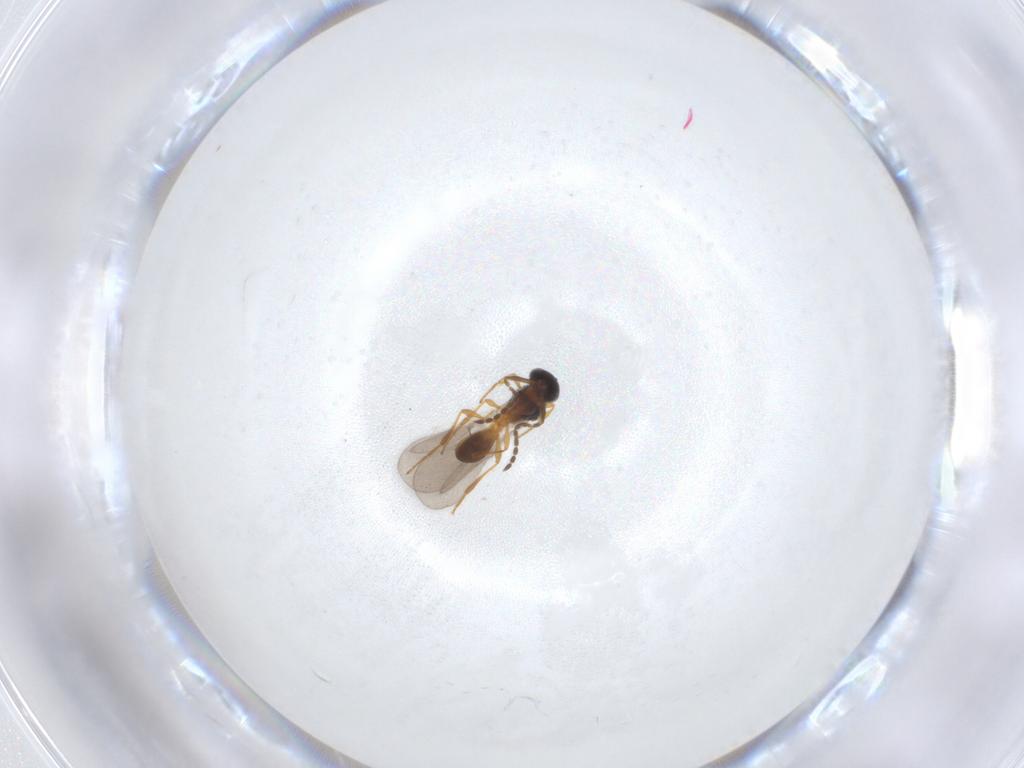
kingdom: Animalia
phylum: Arthropoda
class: Insecta
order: Hymenoptera
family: Platygastridae
